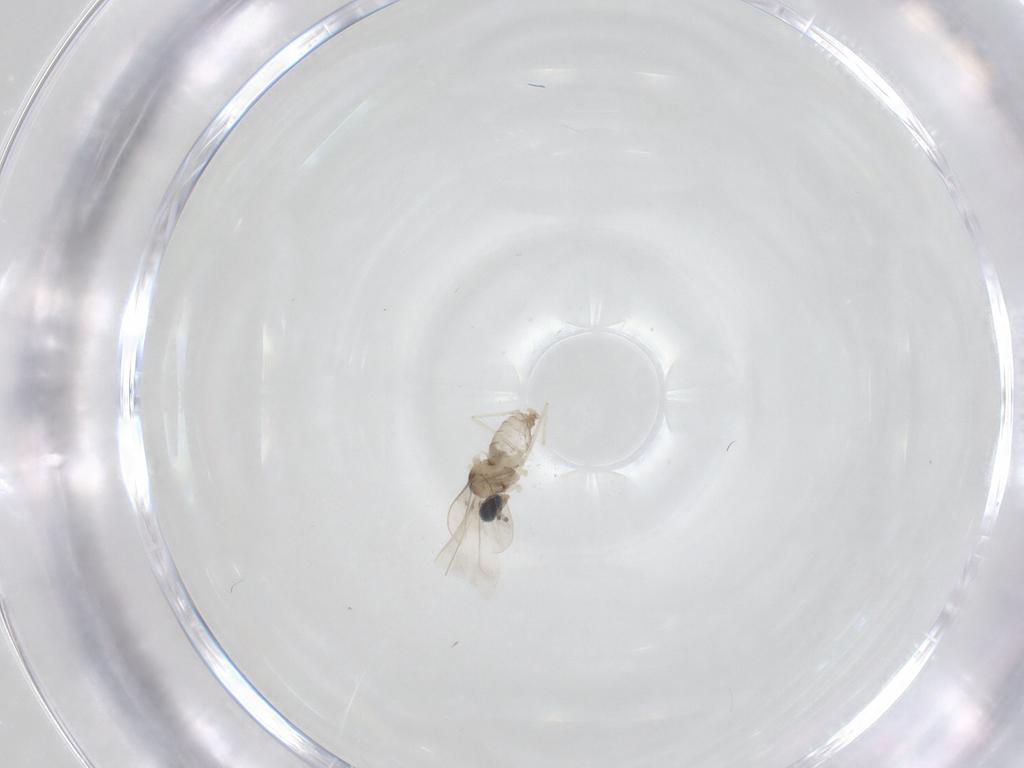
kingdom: Animalia
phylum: Arthropoda
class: Insecta
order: Diptera
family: Cecidomyiidae
